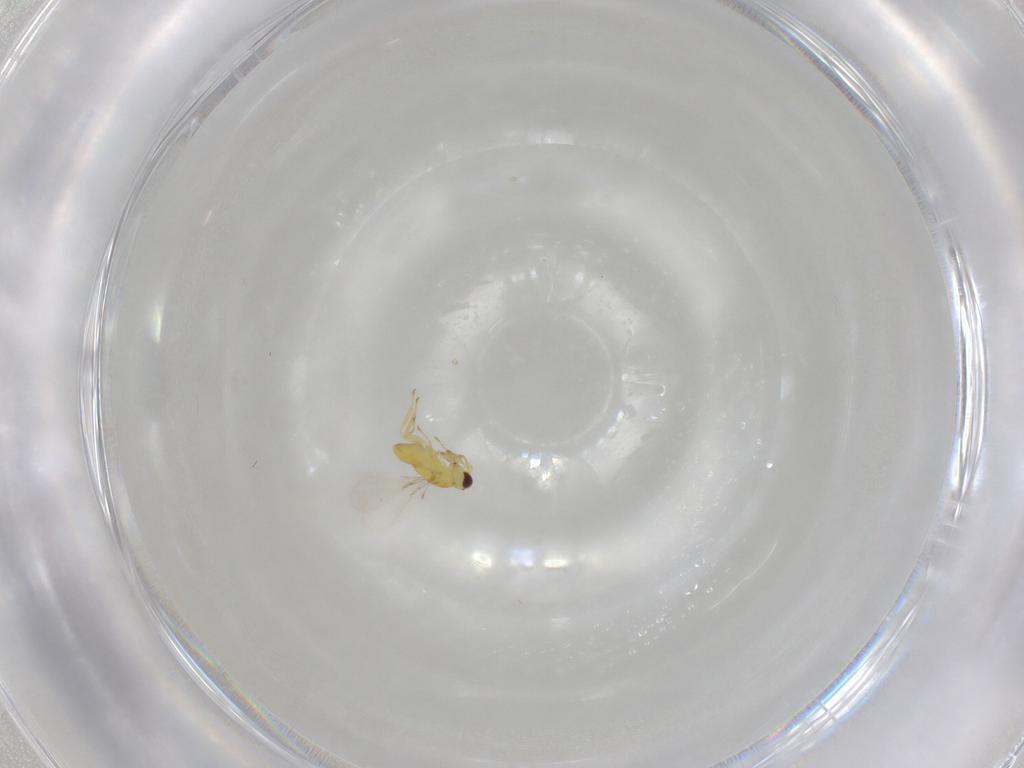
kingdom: Animalia
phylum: Arthropoda
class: Insecta
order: Hymenoptera
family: Mymaridae
